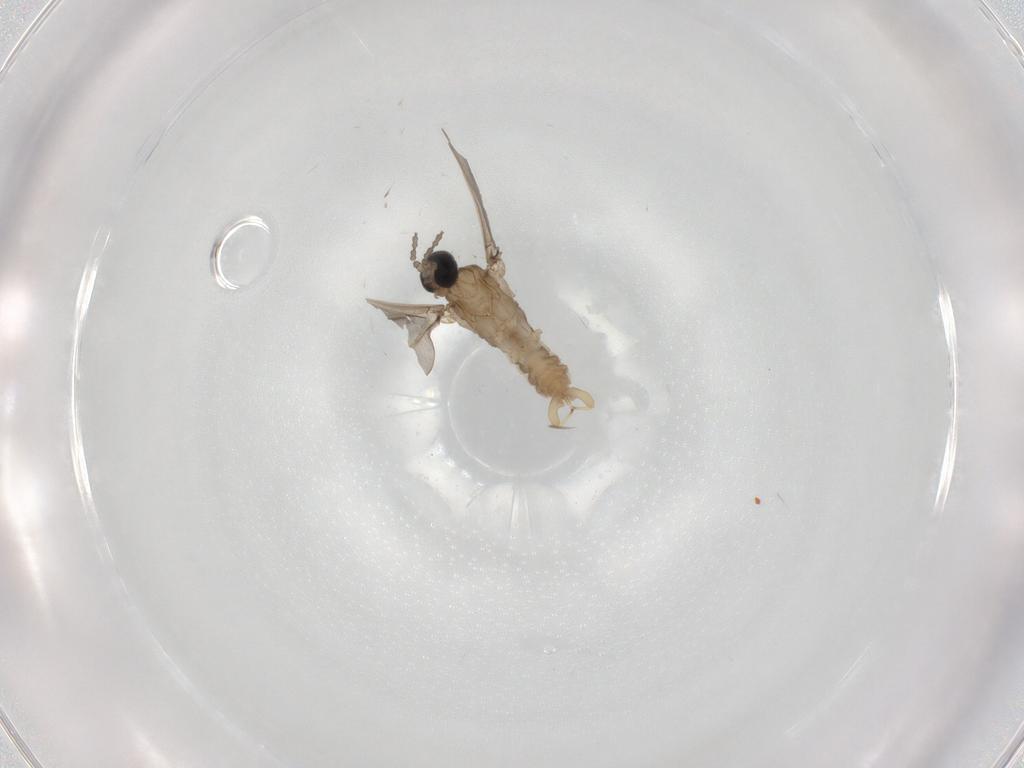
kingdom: Animalia
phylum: Arthropoda
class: Insecta
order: Diptera
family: Cecidomyiidae
